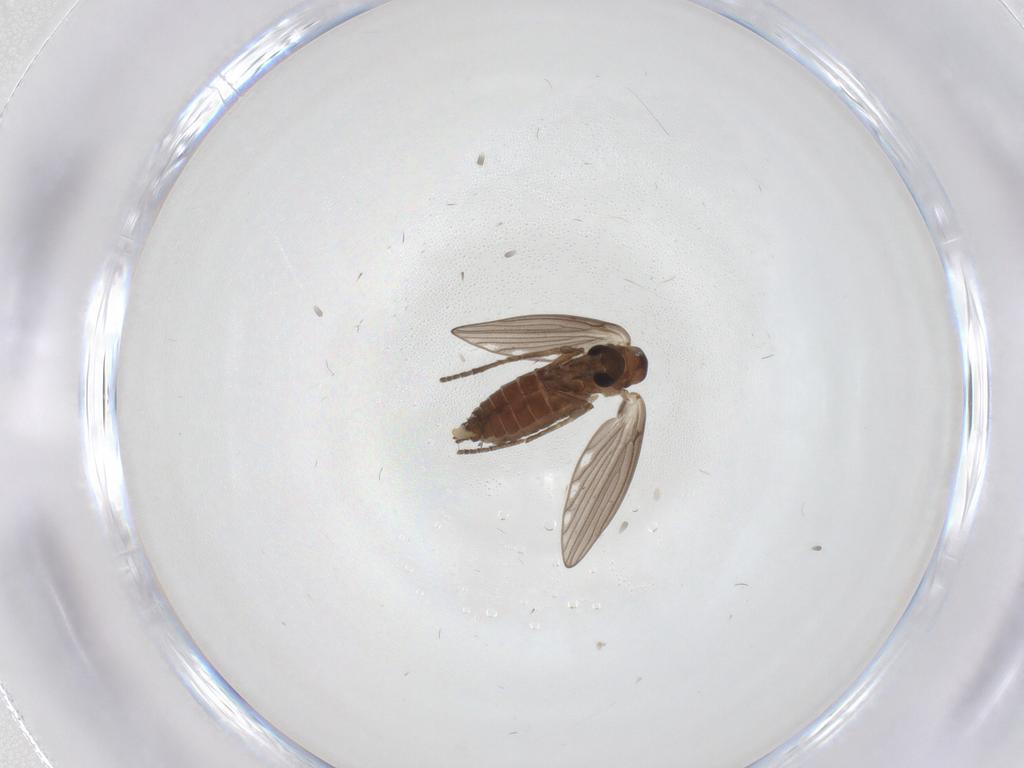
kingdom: Animalia
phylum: Arthropoda
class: Insecta
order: Diptera
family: Psychodidae
